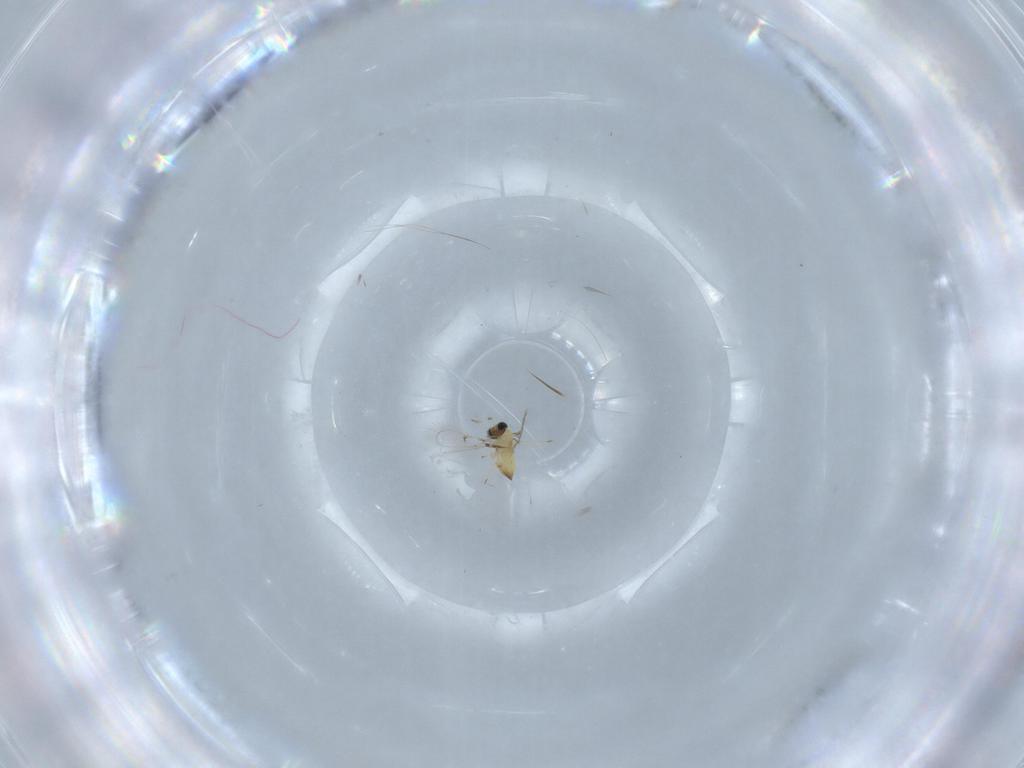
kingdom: Animalia
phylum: Arthropoda
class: Insecta
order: Hymenoptera
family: Trichogrammatidae
